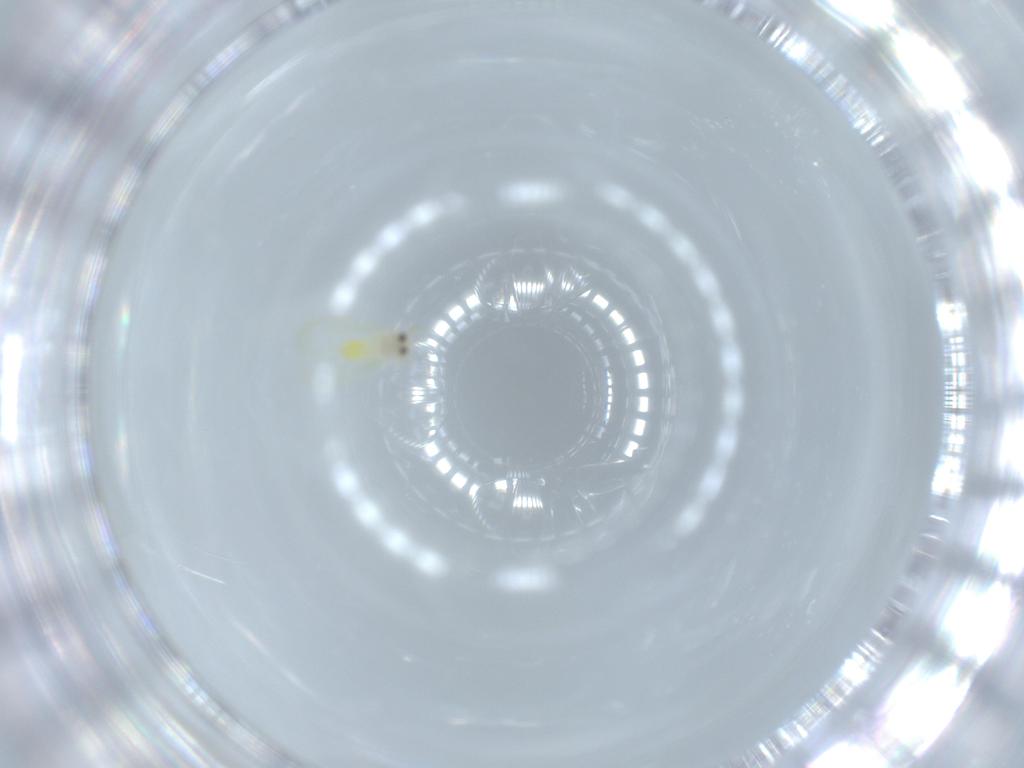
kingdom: Animalia
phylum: Arthropoda
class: Insecta
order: Hemiptera
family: Aleyrodidae
